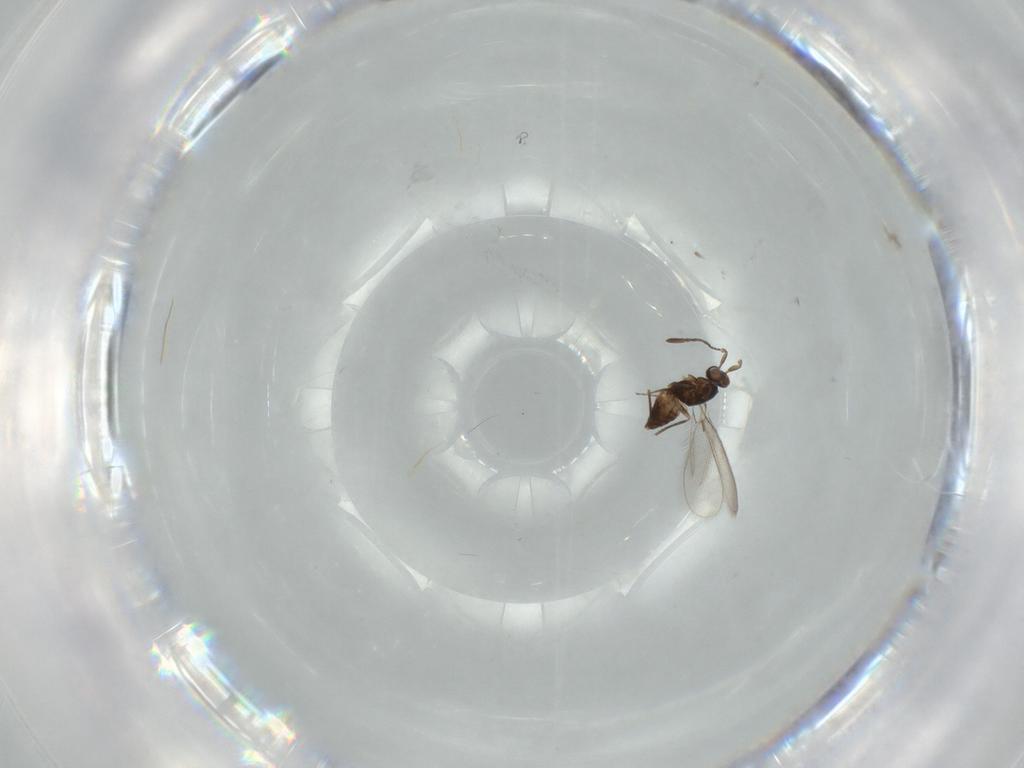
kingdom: Animalia
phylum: Arthropoda
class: Insecta
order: Hymenoptera
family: Mymaridae
